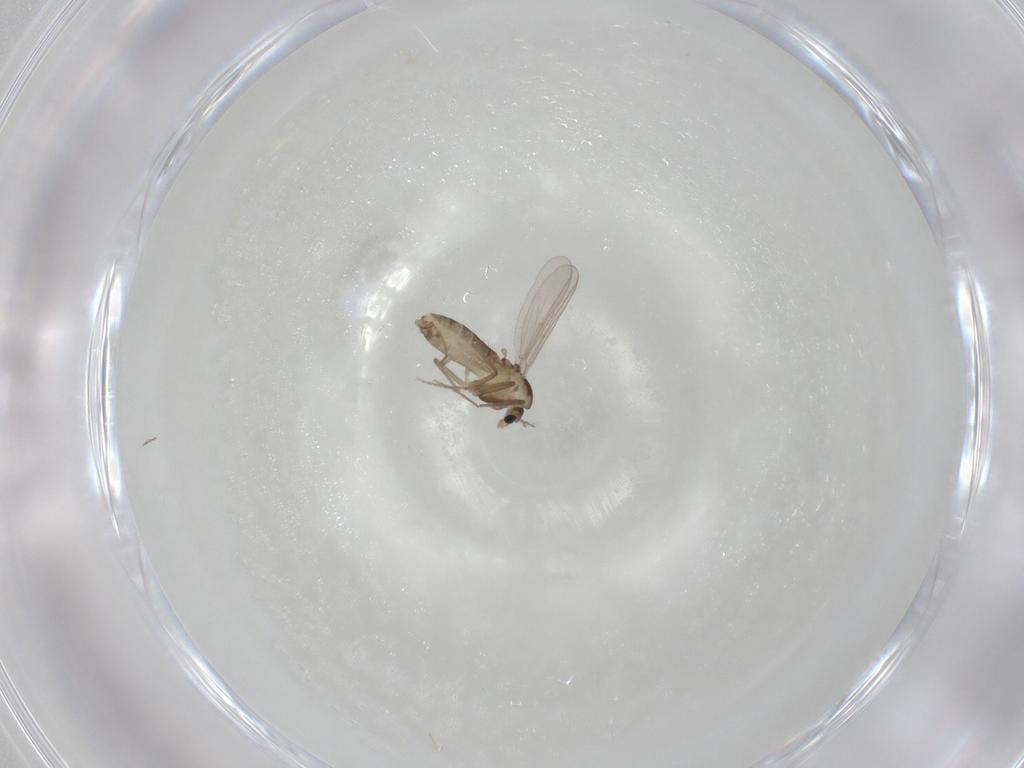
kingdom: Animalia
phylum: Arthropoda
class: Insecta
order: Diptera
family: Chironomidae
